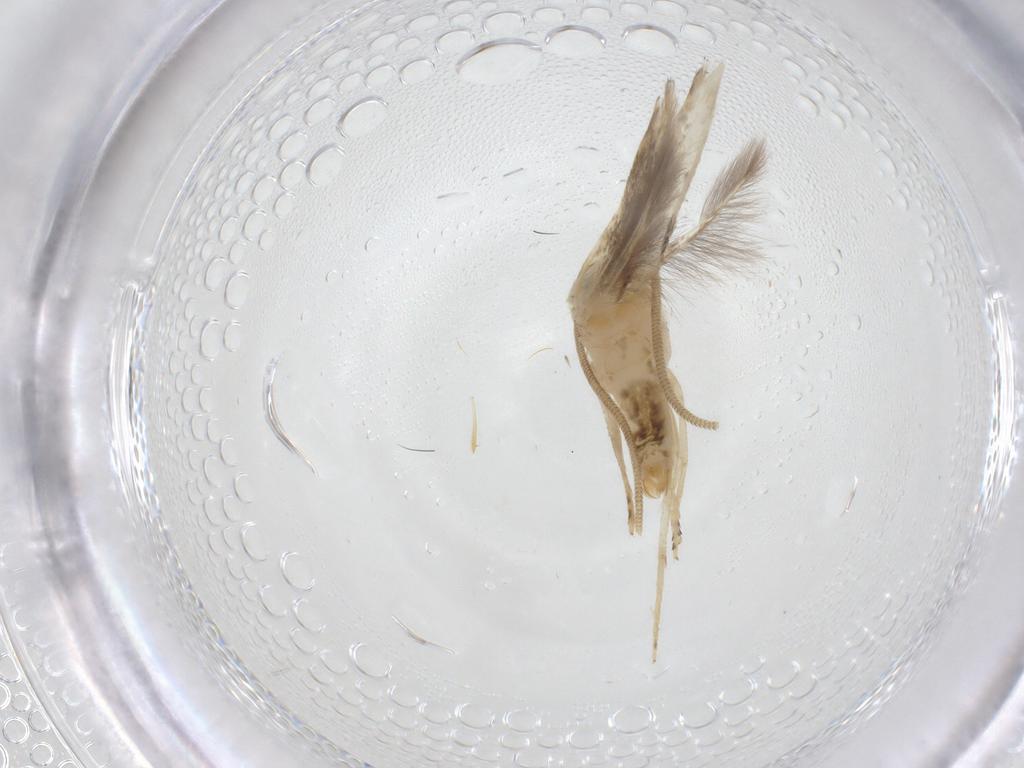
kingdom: Animalia
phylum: Arthropoda
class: Insecta
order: Lepidoptera
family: Opostegidae
